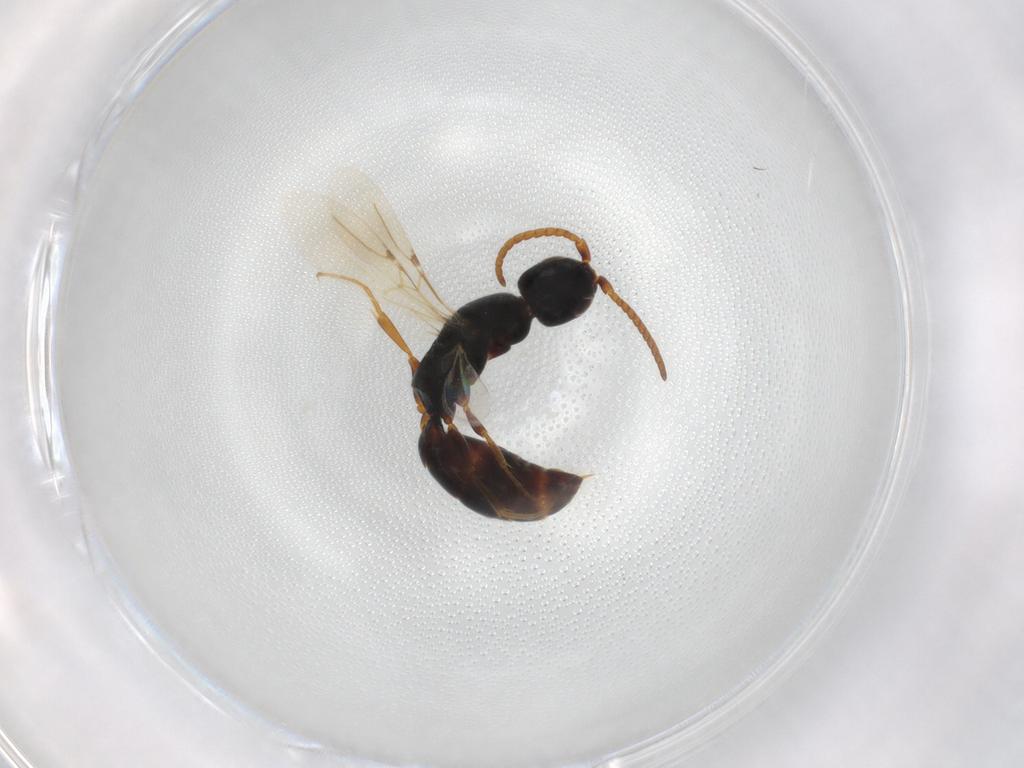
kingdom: Animalia
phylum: Arthropoda
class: Insecta
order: Hymenoptera
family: Bethylidae
